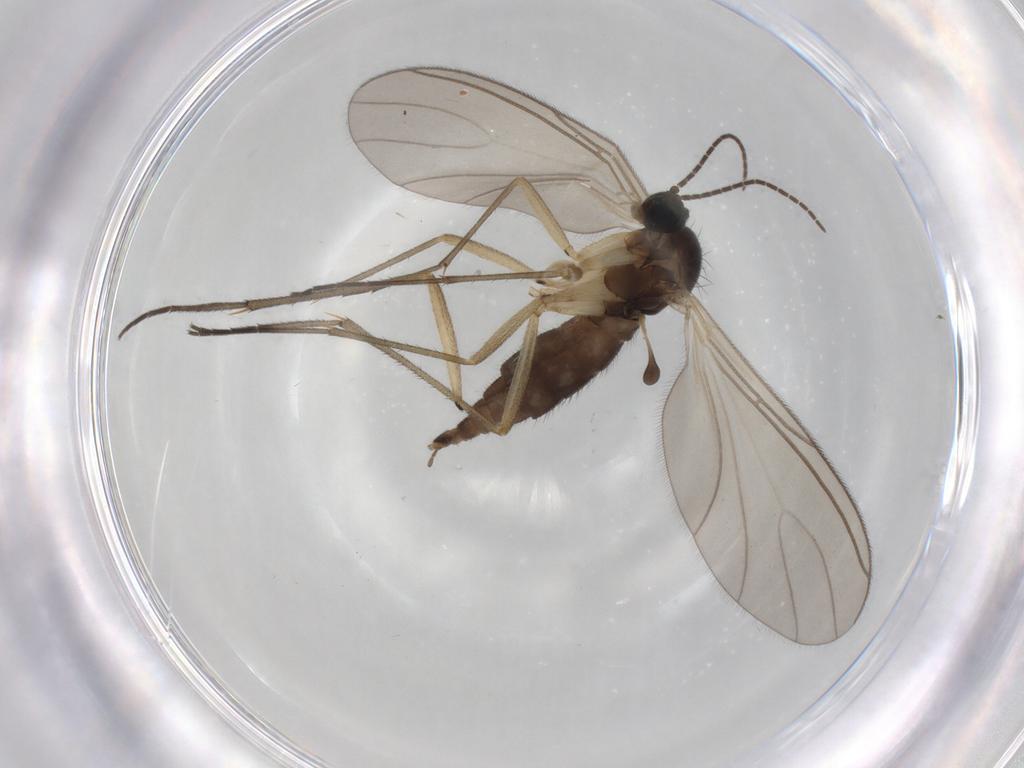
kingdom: Animalia
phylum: Arthropoda
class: Insecta
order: Diptera
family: Sciaridae
